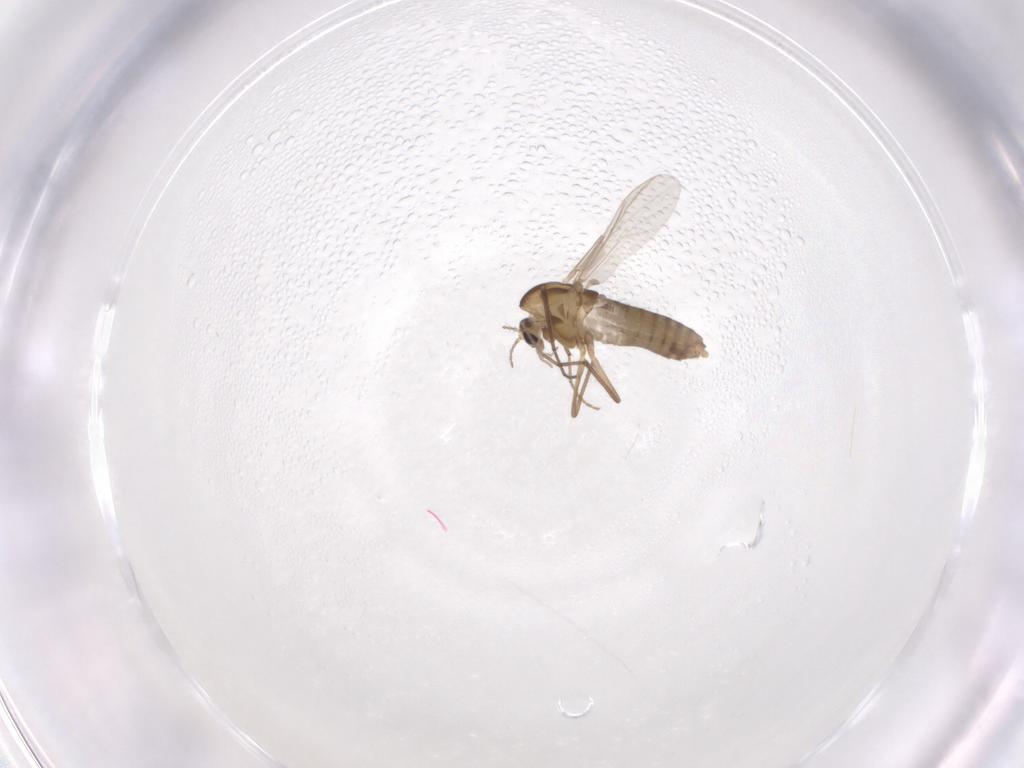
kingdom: Animalia
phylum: Arthropoda
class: Insecta
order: Diptera
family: Chironomidae
